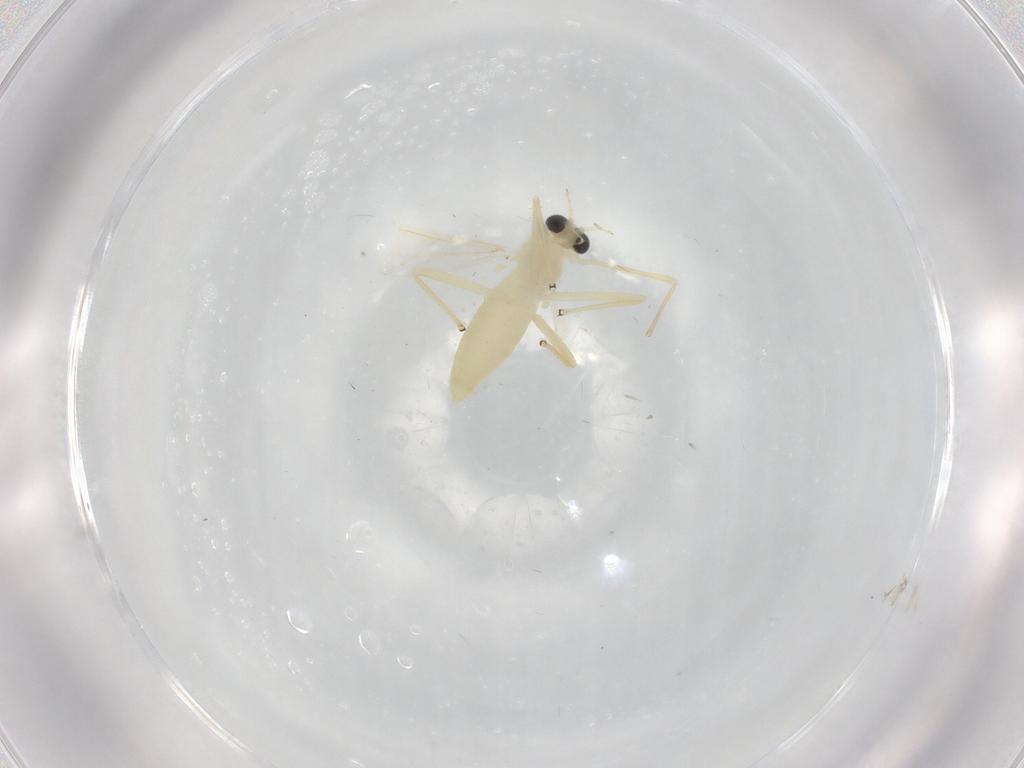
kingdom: Animalia
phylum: Arthropoda
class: Insecta
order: Diptera
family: Chironomidae
